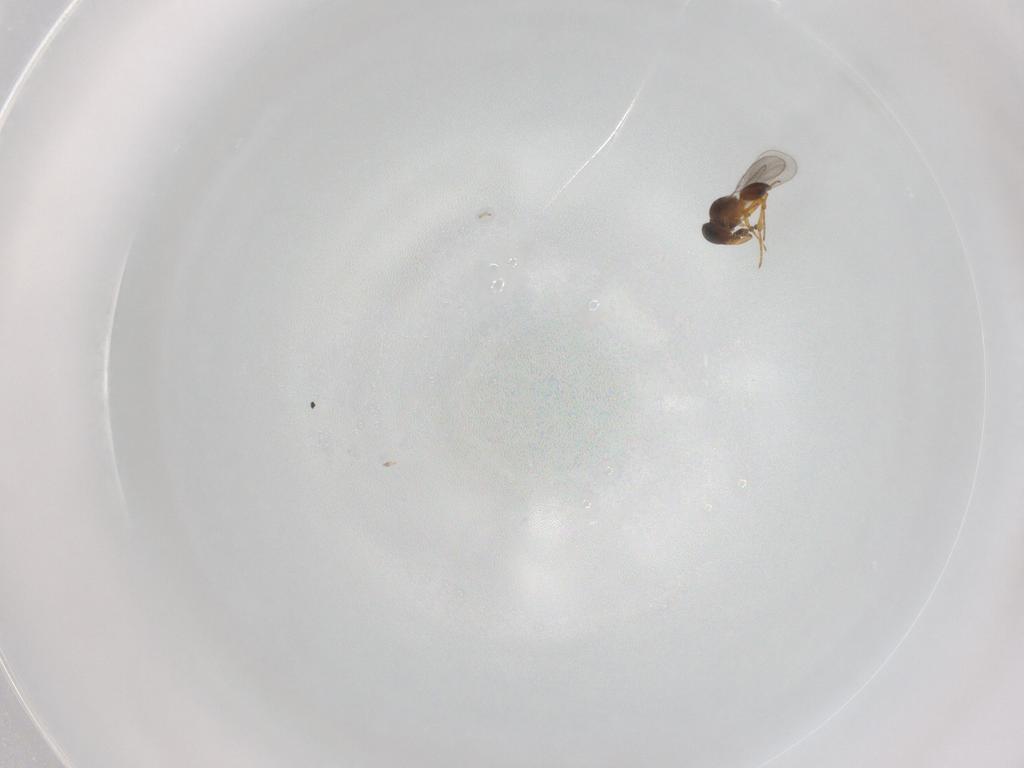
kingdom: Animalia
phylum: Arthropoda
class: Insecta
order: Hymenoptera
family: Platygastridae
